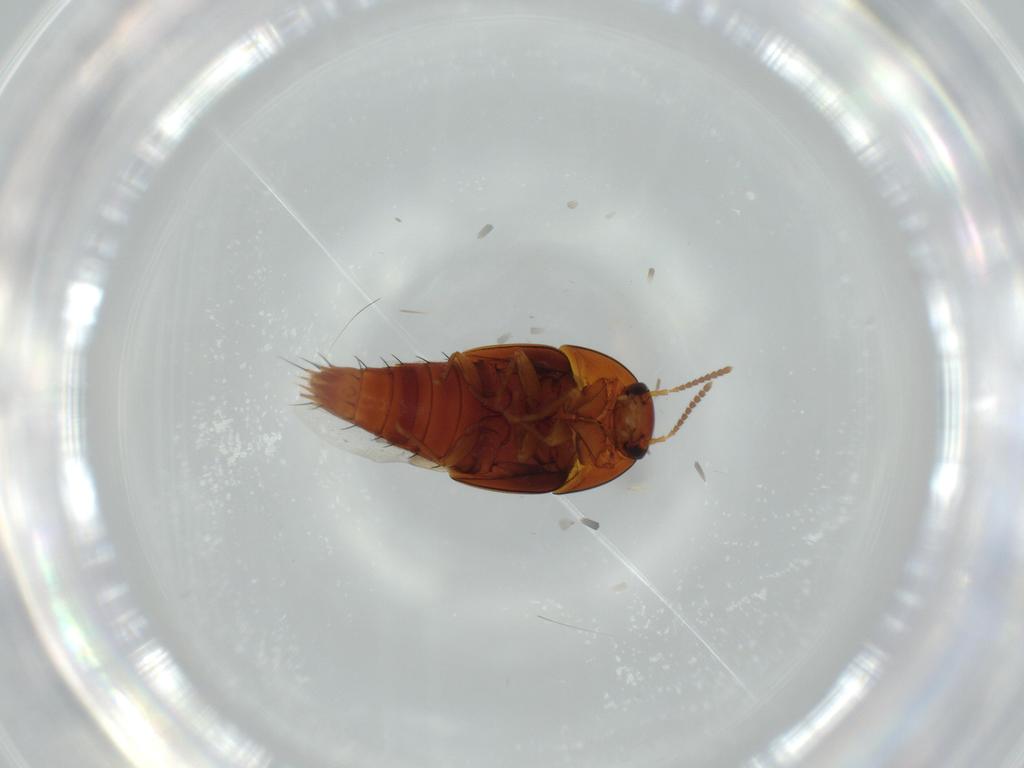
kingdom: Animalia
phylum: Arthropoda
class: Insecta
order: Coleoptera
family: Staphylinidae
